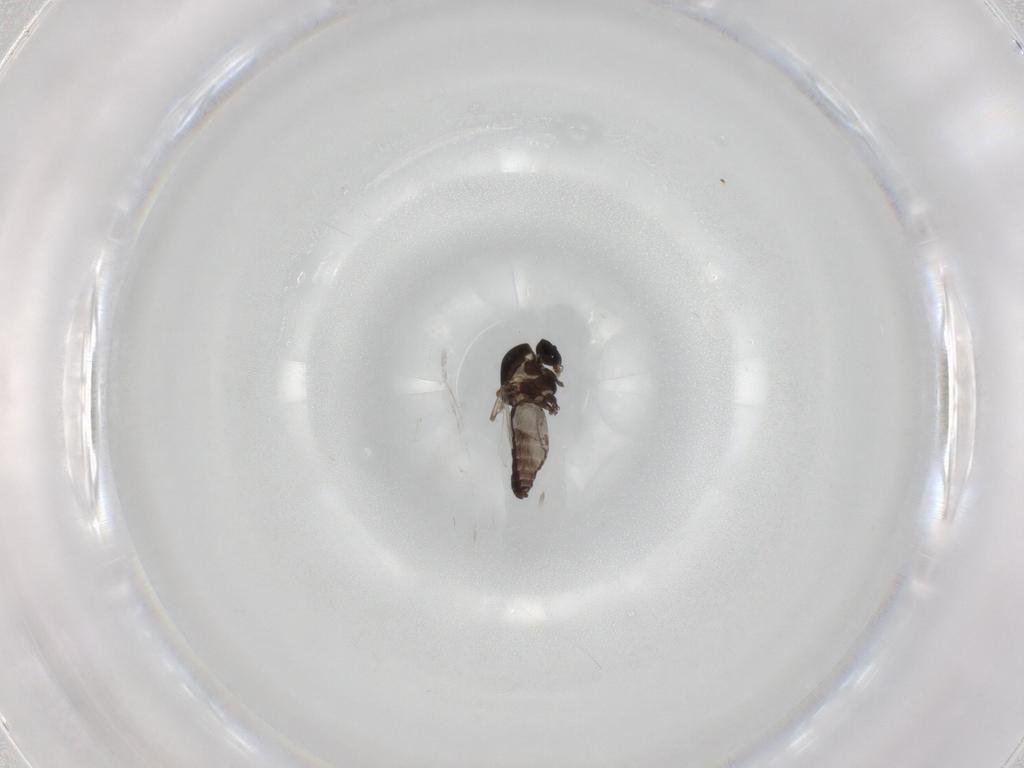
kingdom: Animalia
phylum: Arthropoda
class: Insecta
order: Diptera
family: Ceratopogonidae
